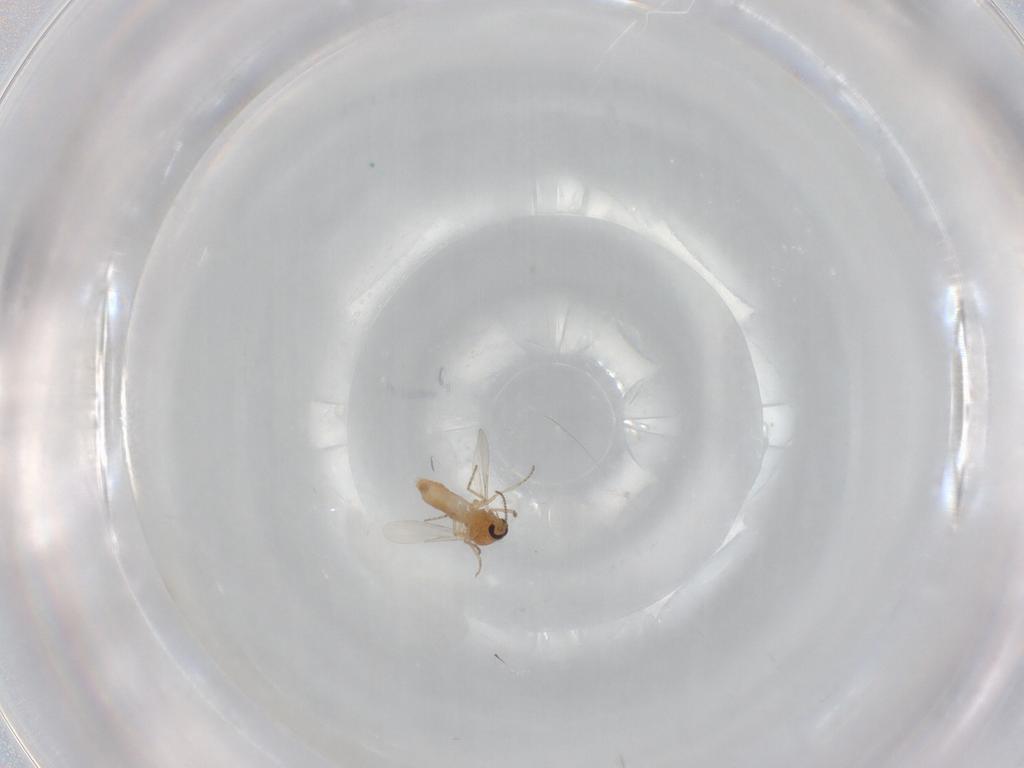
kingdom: Animalia
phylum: Arthropoda
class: Insecta
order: Diptera
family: Ceratopogonidae
